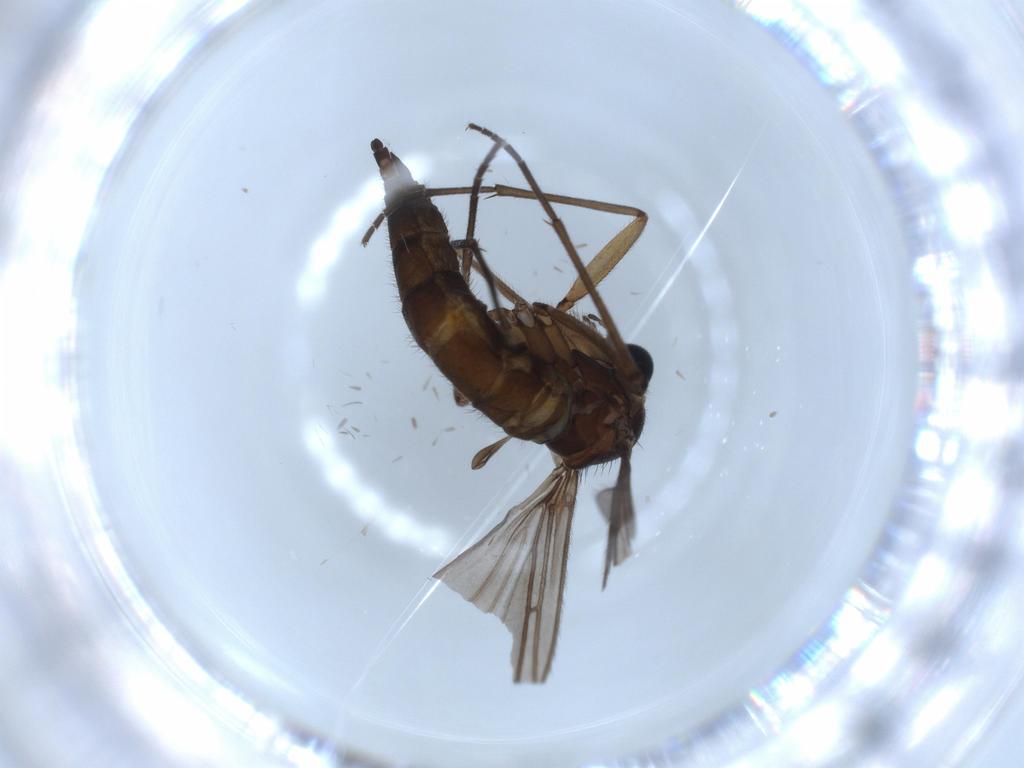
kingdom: Animalia
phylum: Arthropoda
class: Insecta
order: Diptera
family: Sciaridae
